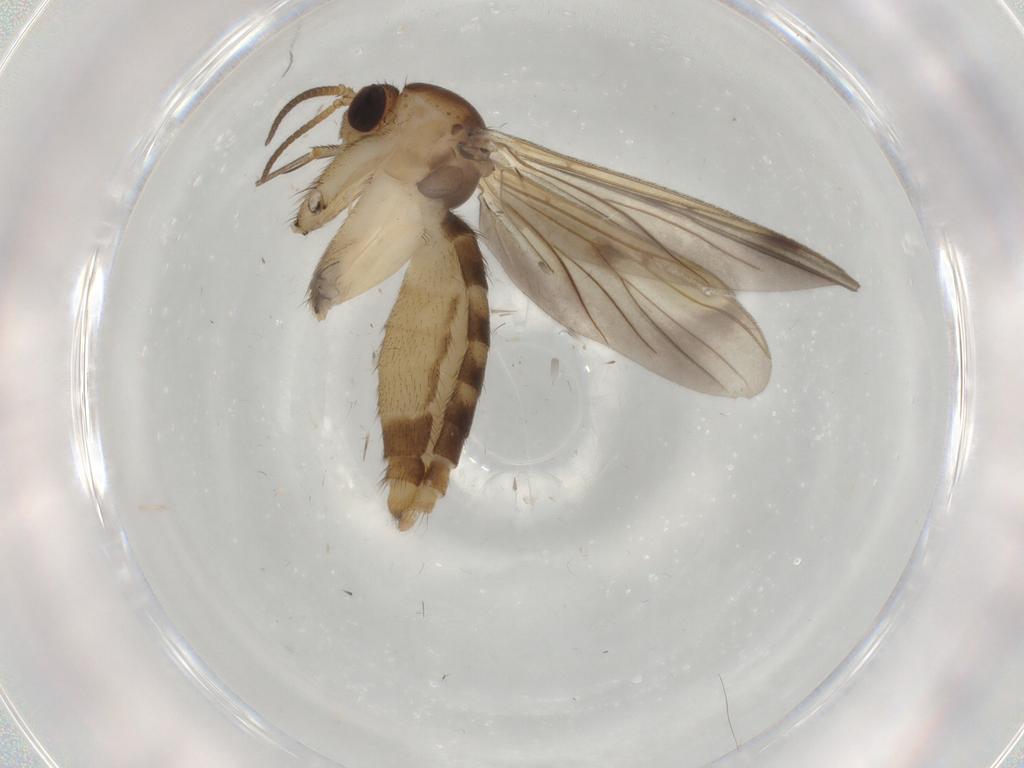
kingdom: Animalia
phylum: Arthropoda
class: Insecta
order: Diptera
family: Mycetophilidae
